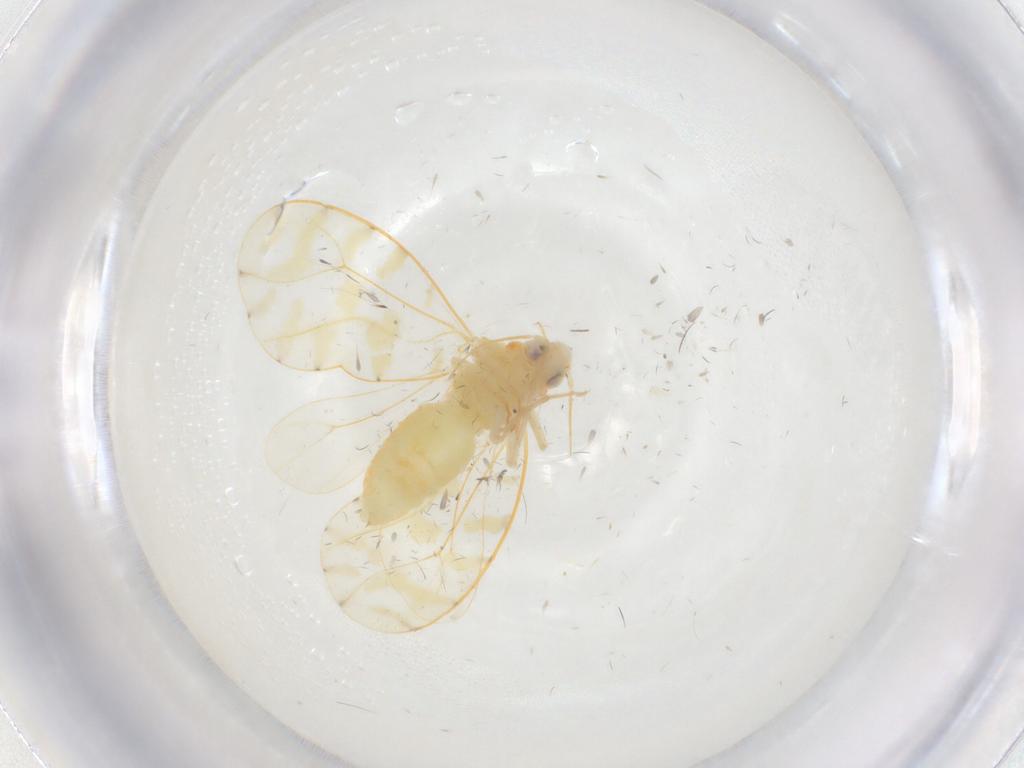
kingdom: Animalia
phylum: Arthropoda
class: Insecta
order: Hemiptera
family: Aleyrodidae
